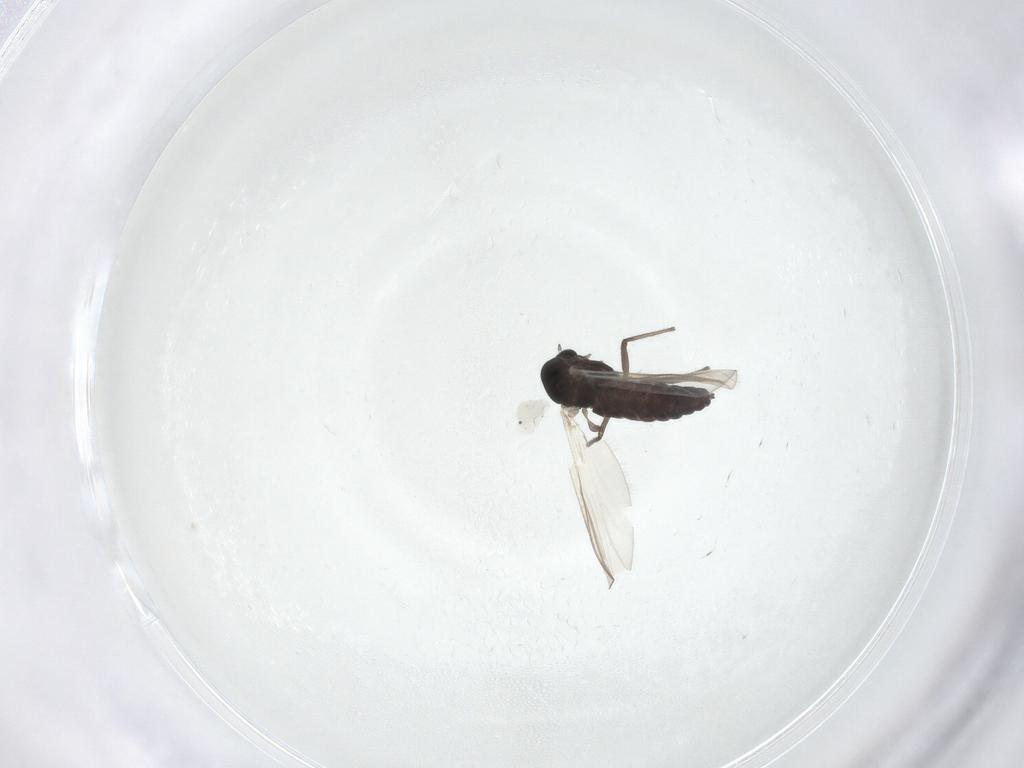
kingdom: Animalia
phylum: Arthropoda
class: Insecta
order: Diptera
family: Chironomidae
